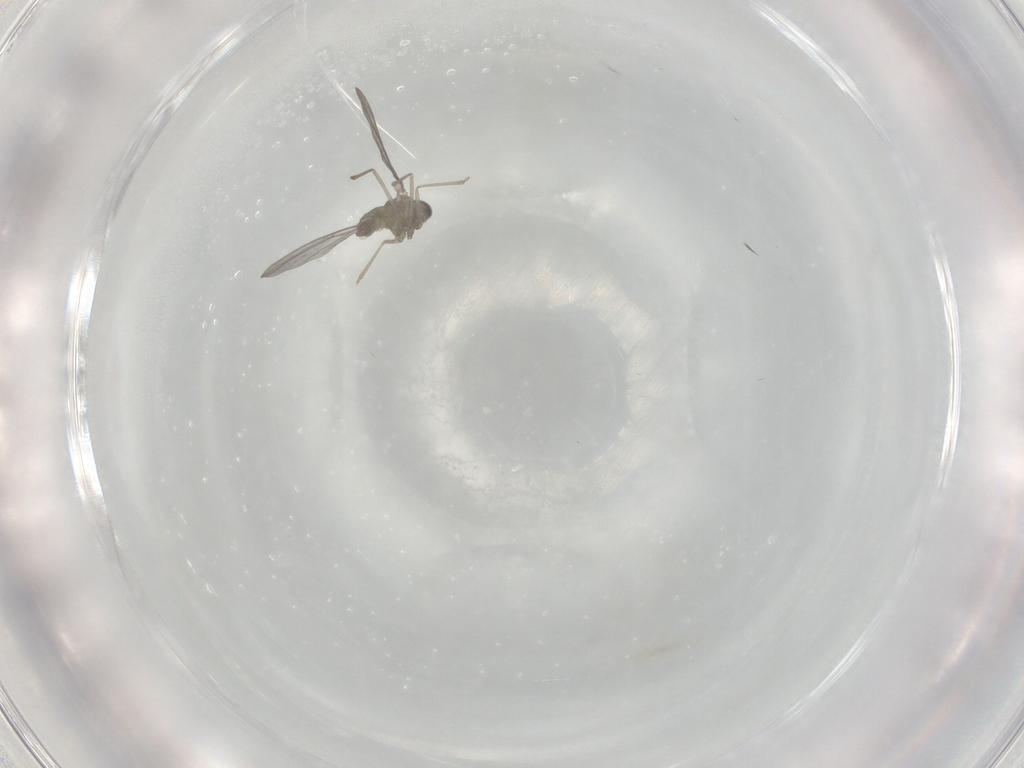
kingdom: Animalia
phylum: Arthropoda
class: Insecta
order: Diptera
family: Cecidomyiidae
